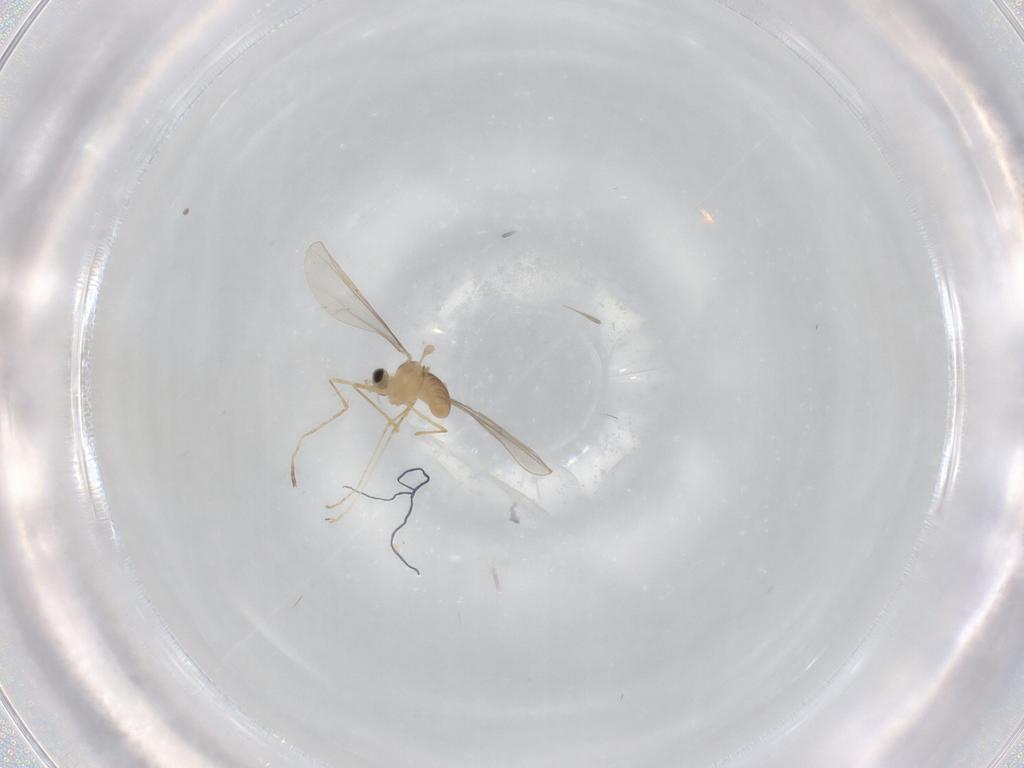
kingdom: Animalia
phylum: Arthropoda
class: Insecta
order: Diptera
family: Cecidomyiidae
